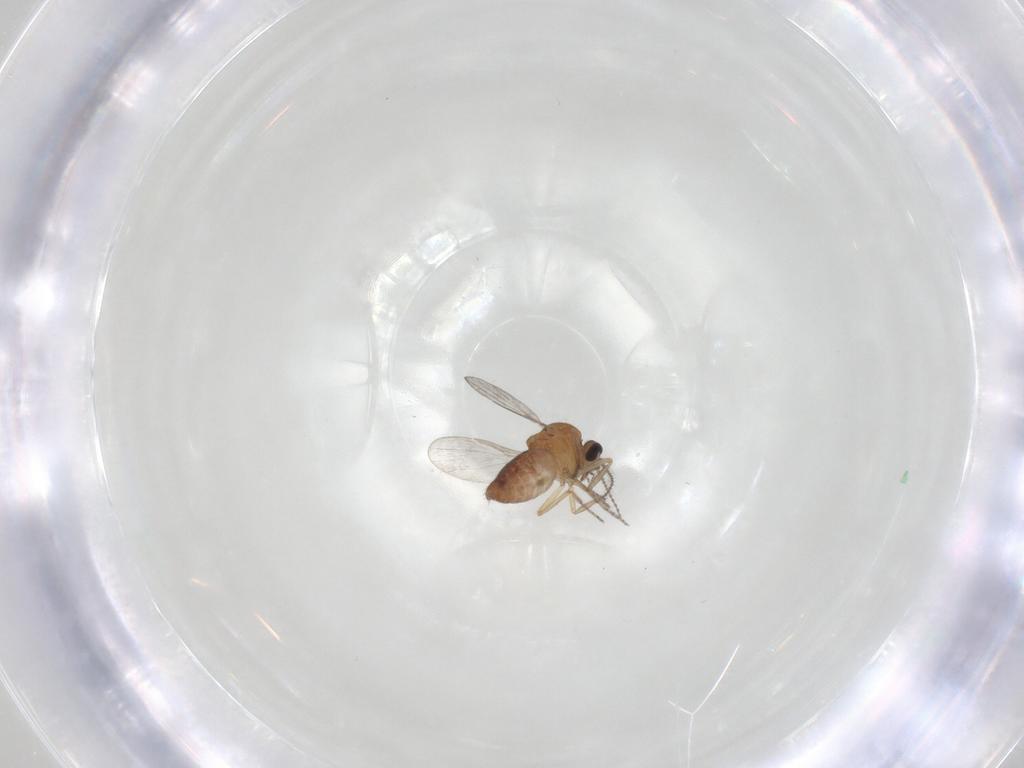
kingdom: Animalia
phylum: Arthropoda
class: Insecta
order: Diptera
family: Ceratopogonidae
